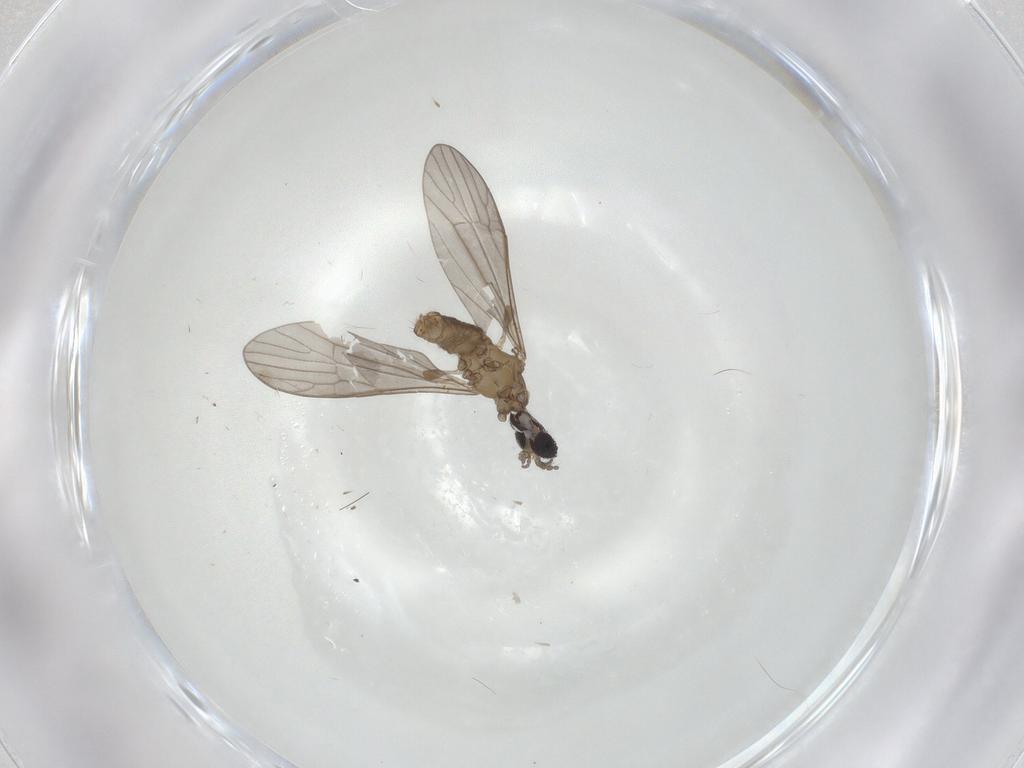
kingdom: Animalia
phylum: Arthropoda
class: Insecta
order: Diptera
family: Phoridae
